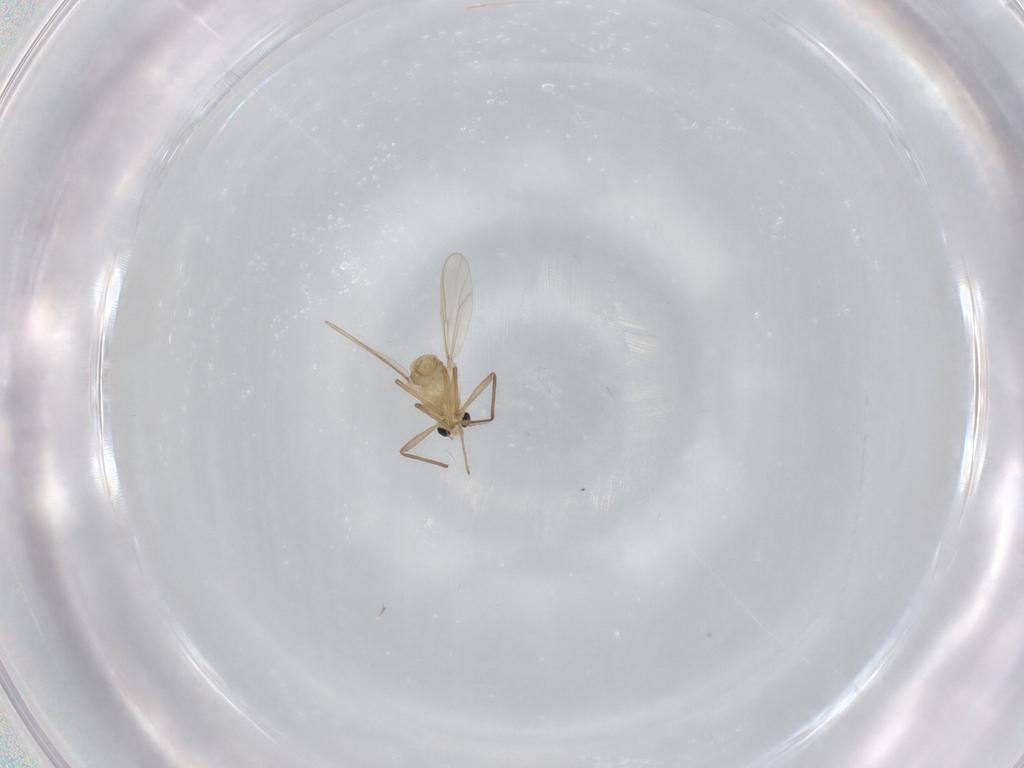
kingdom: Animalia
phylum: Arthropoda
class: Insecta
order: Diptera
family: Chironomidae
